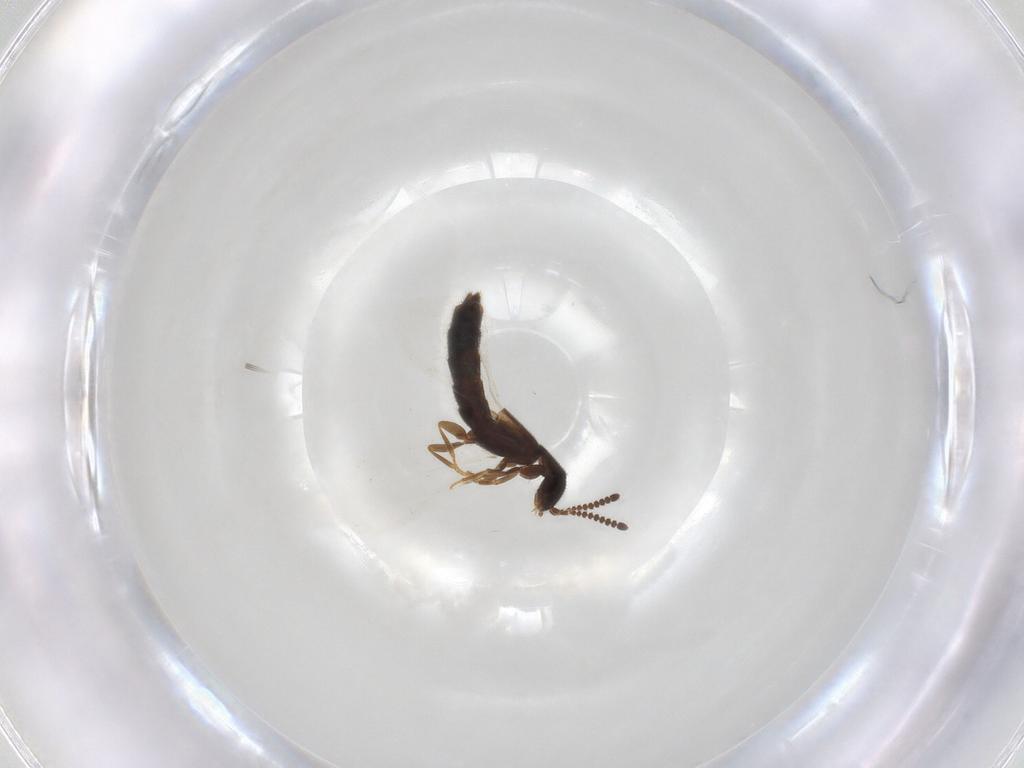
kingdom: Animalia
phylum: Arthropoda
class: Insecta
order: Coleoptera
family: Staphylinidae
